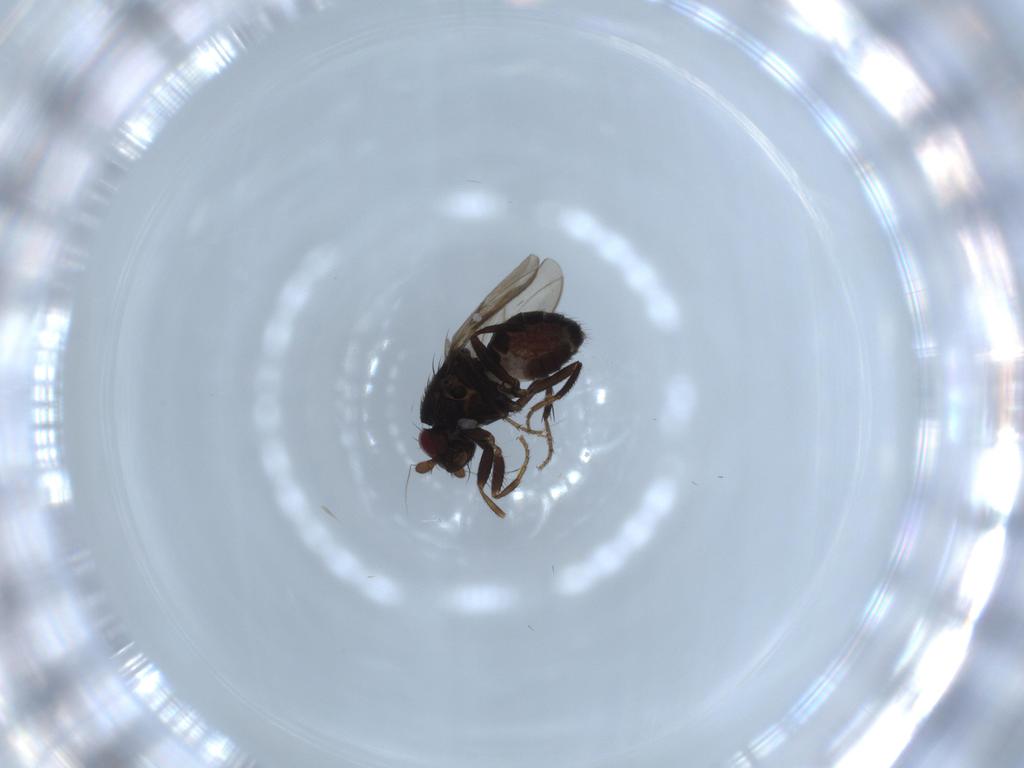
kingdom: Animalia
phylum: Arthropoda
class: Insecta
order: Diptera
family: Sphaeroceridae
